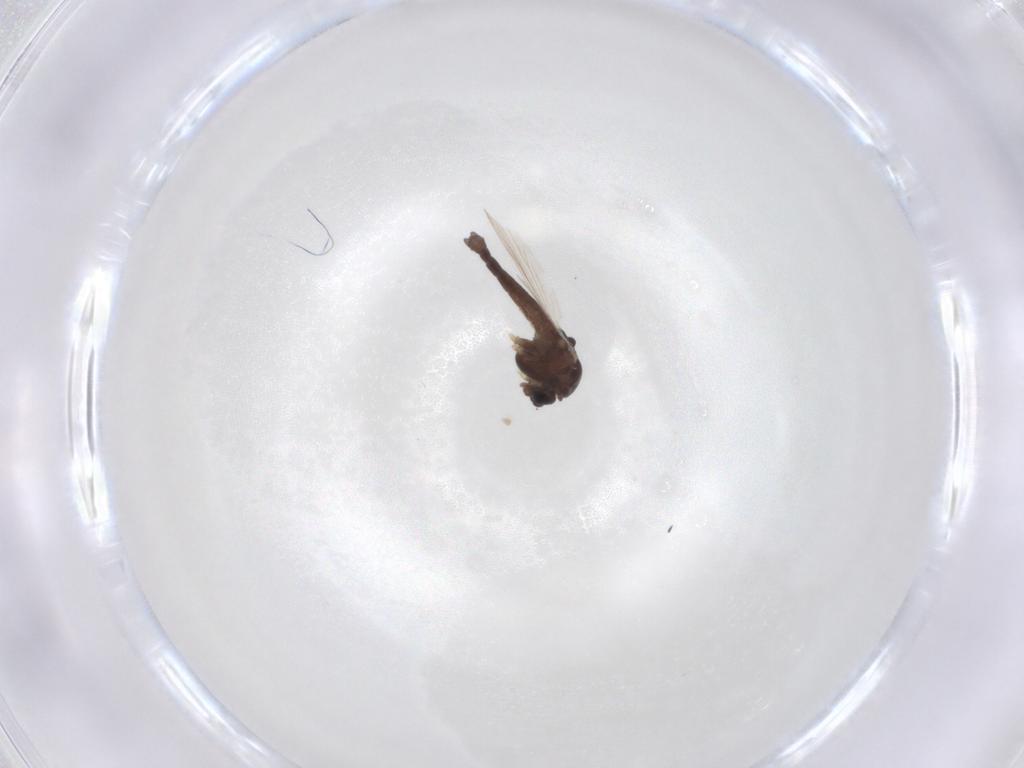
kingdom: Animalia
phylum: Arthropoda
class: Insecta
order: Diptera
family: Chironomidae
